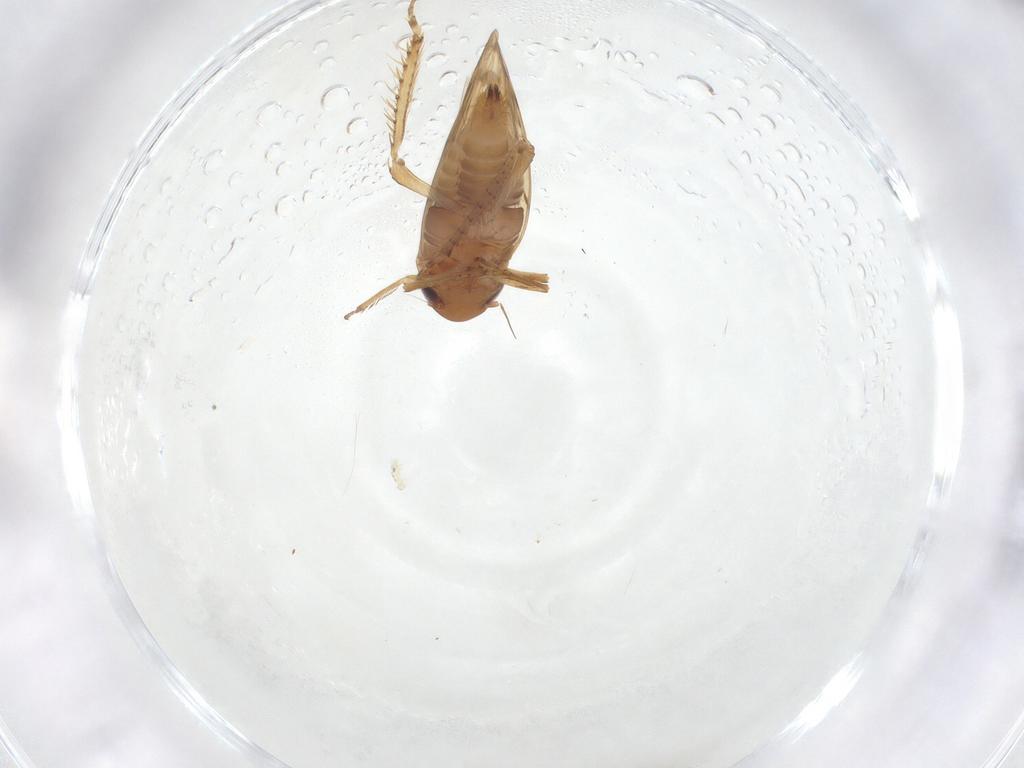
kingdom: Animalia
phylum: Arthropoda
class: Insecta
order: Hemiptera
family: Cicadellidae
